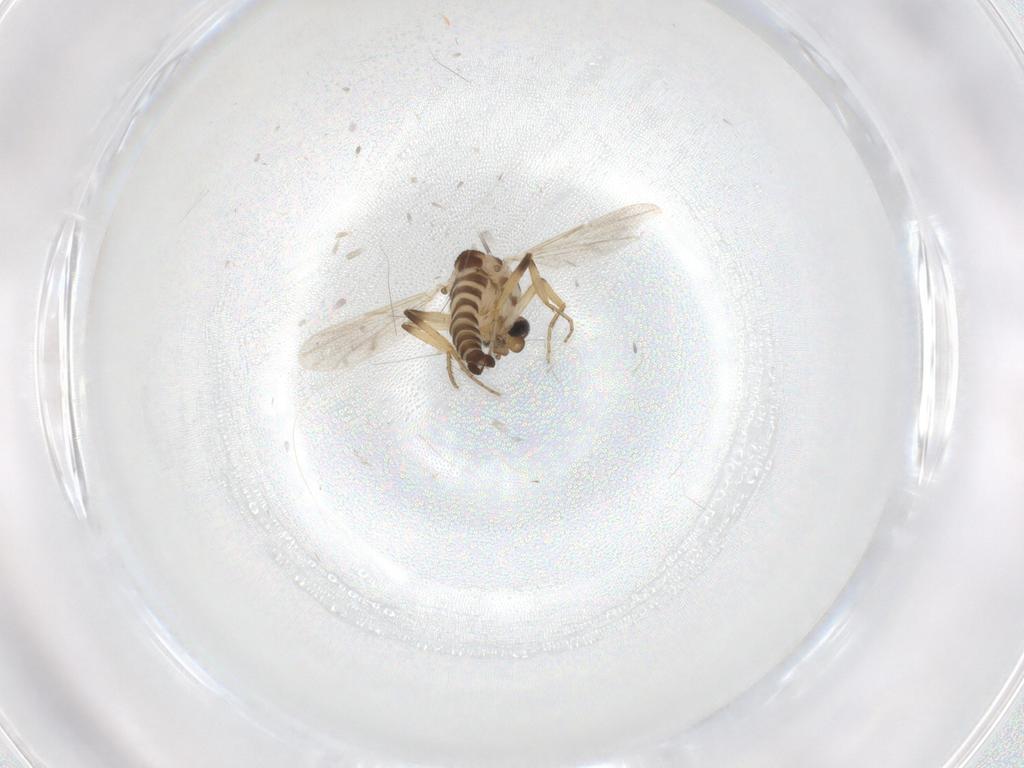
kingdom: Animalia
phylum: Arthropoda
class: Insecta
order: Diptera
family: Ceratopogonidae
